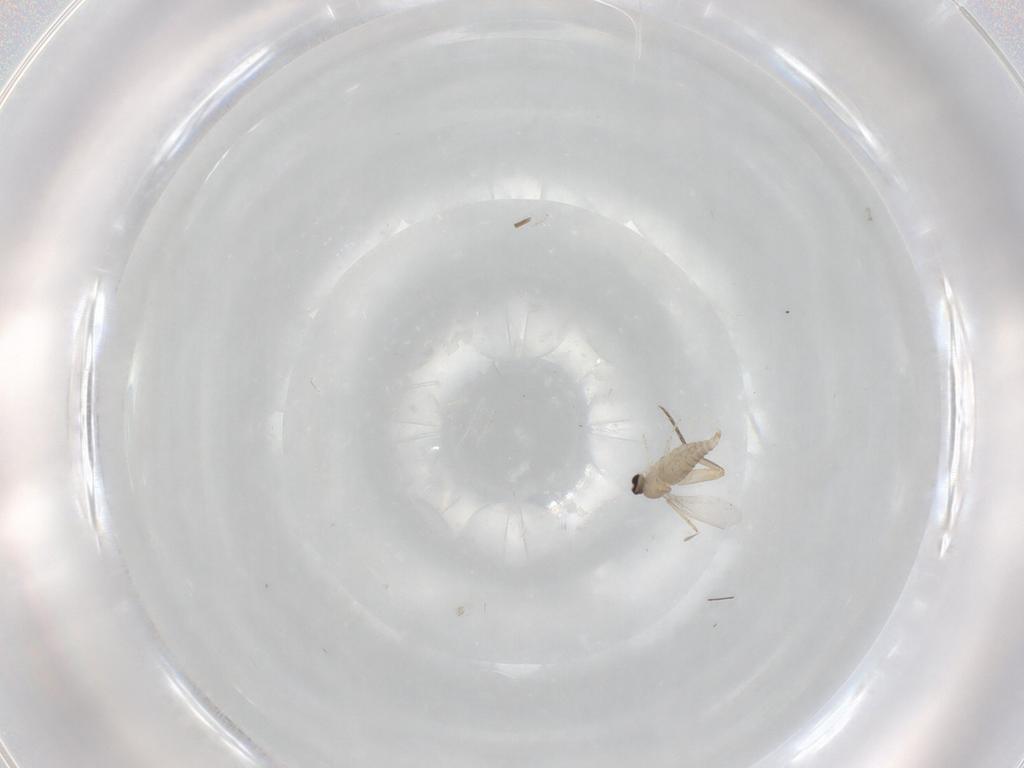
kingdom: Animalia
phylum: Arthropoda
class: Insecta
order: Diptera
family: Phoridae
